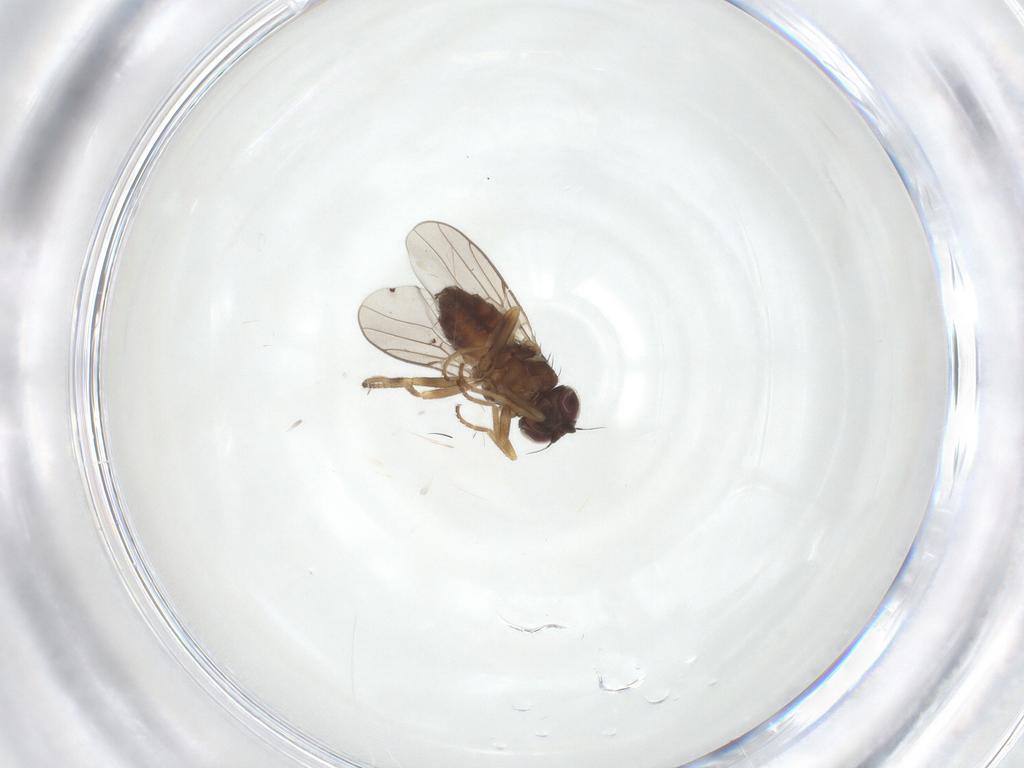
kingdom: Animalia
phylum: Arthropoda
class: Insecta
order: Diptera
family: Chloropidae
